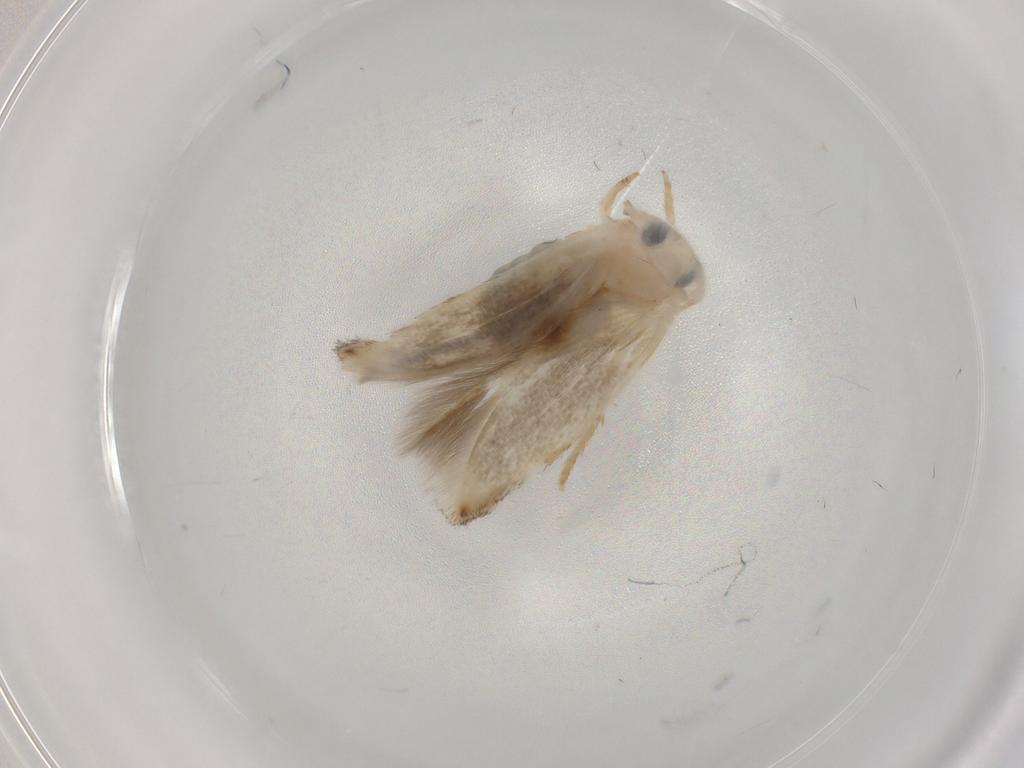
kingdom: Animalia
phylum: Arthropoda
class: Insecta
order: Lepidoptera
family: Opostegidae
